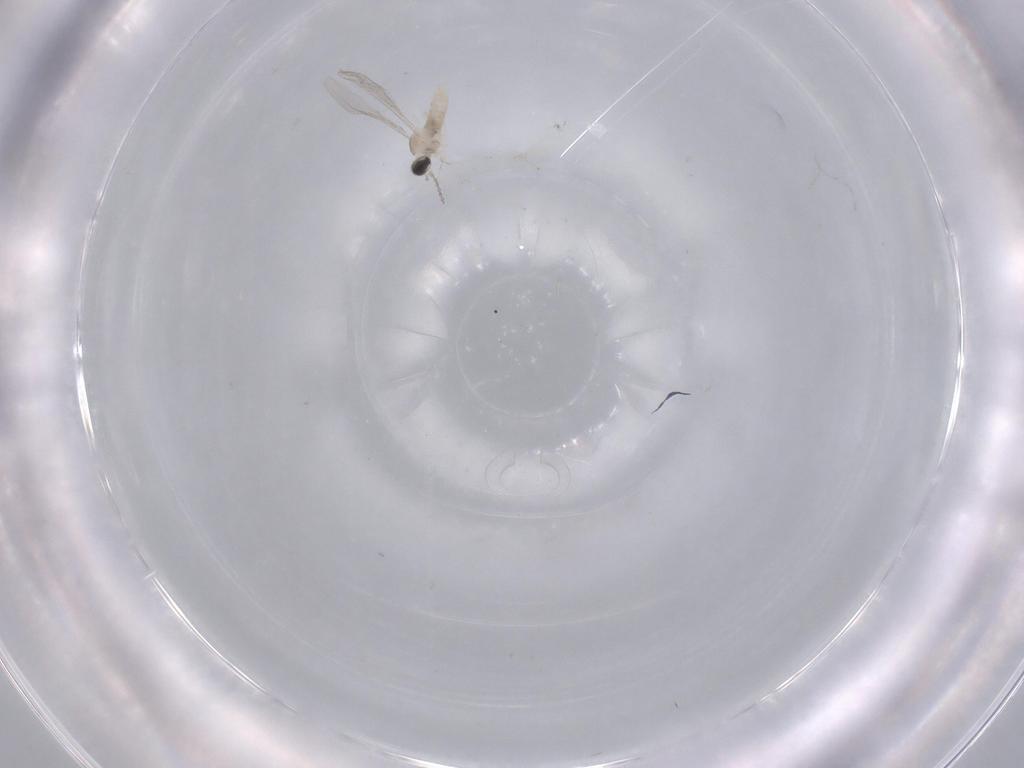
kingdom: Animalia
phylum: Arthropoda
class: Insecta
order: Diptera
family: Cecidomyiidae
